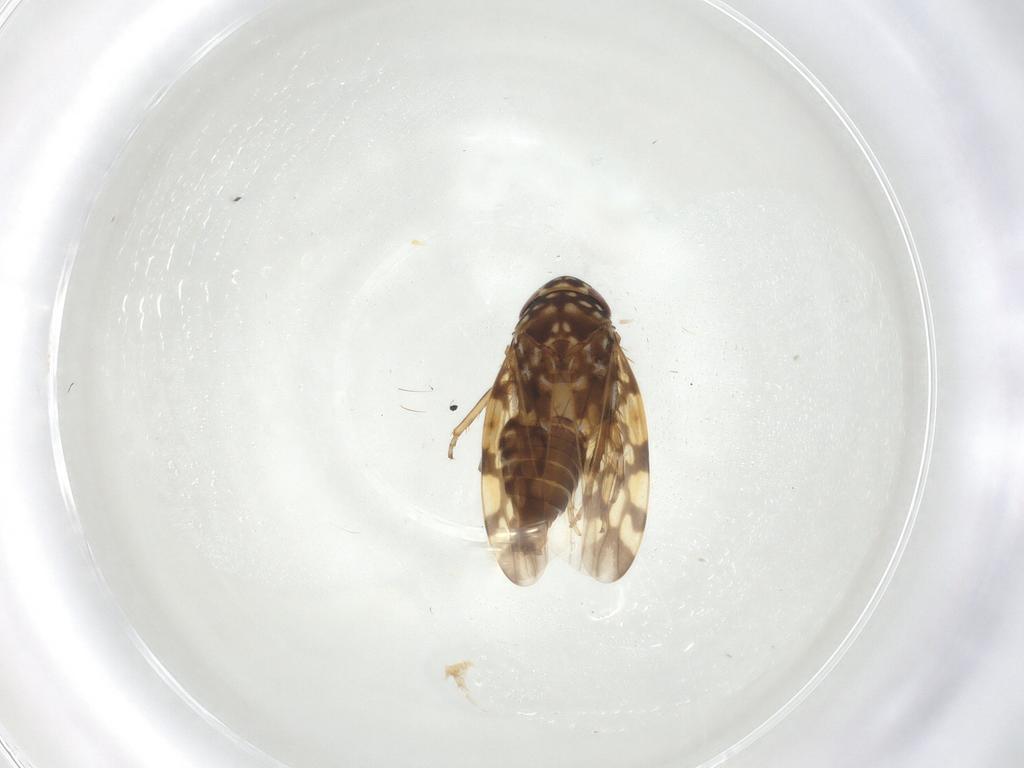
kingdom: Animalia
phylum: Arthropoda
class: Insecta
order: Hemiptera
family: Cicadellidae
